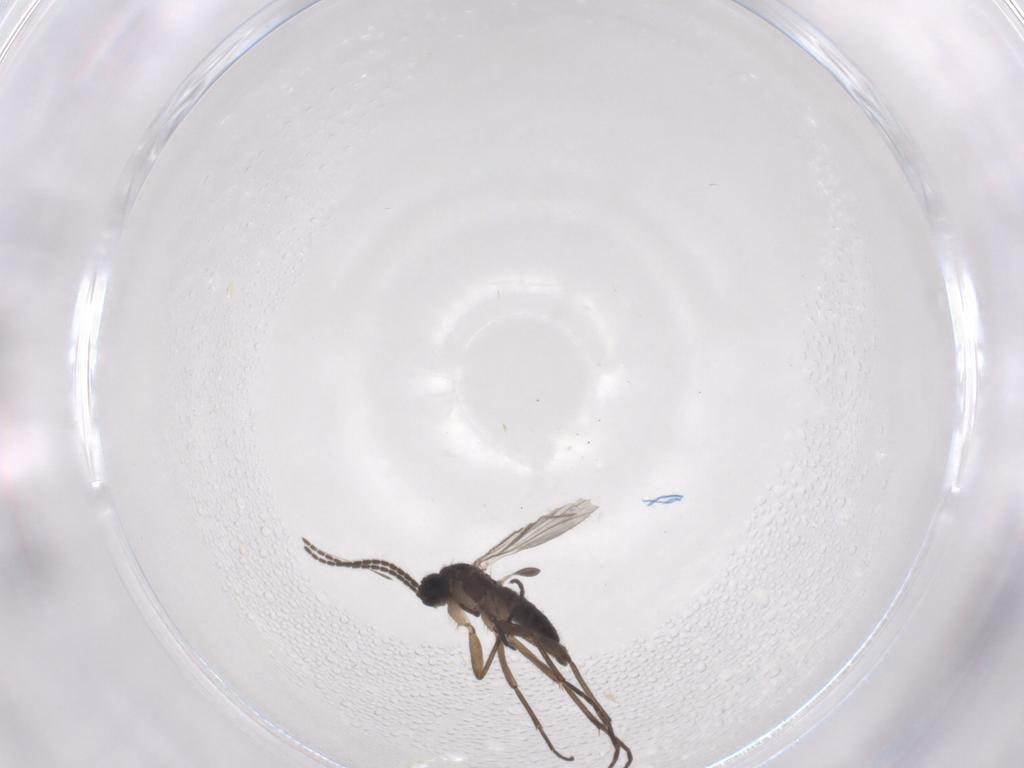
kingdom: Animalia
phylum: Arthropoda
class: Insecta
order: Diptera
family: Sciaridae
